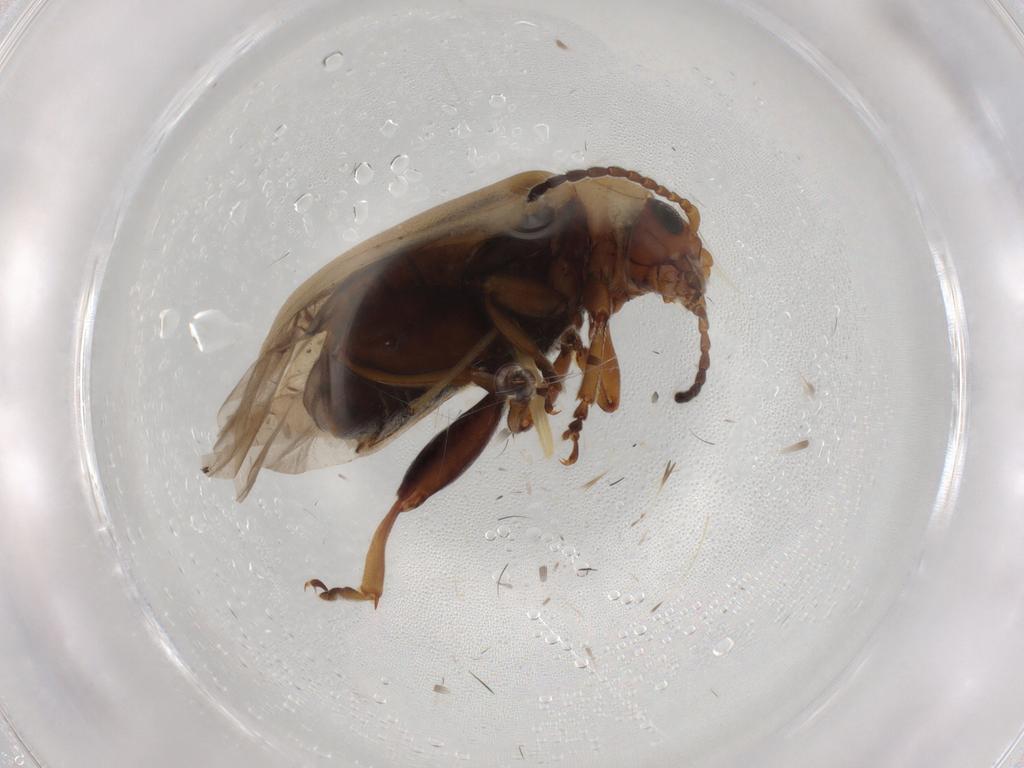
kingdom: Animalia
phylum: Arthropoda
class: Insecta
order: Coleoptera
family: Chrysomelidae
